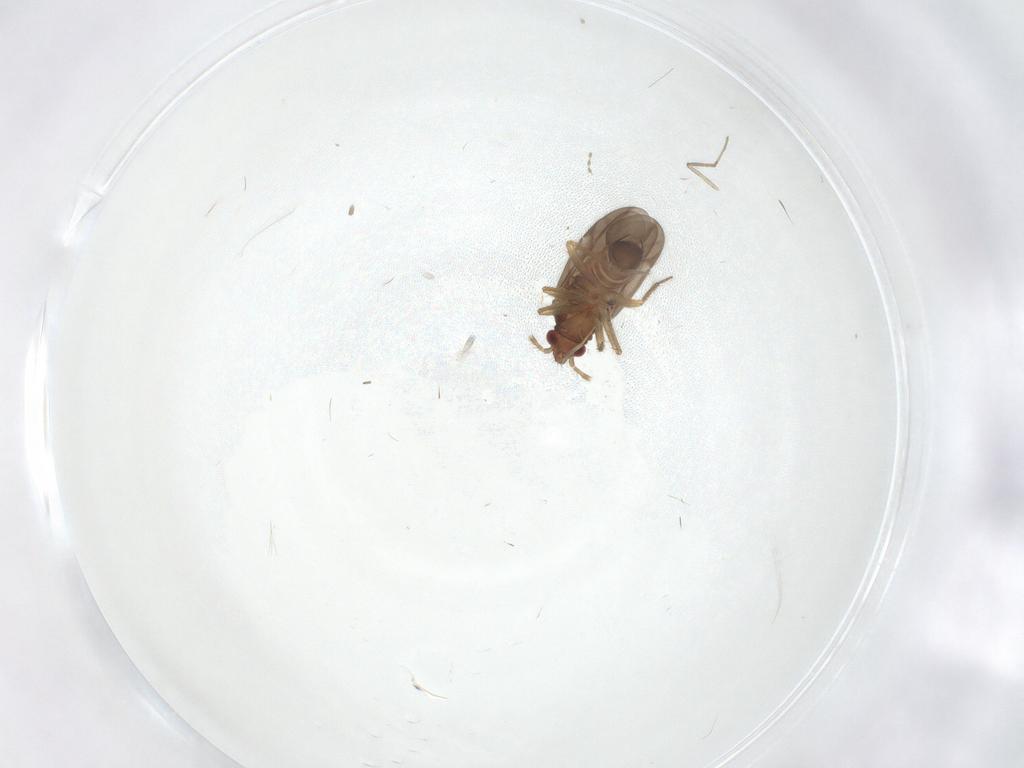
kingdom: Animalia
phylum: Arthropoda
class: Insecta
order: Hemiptera
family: Ceratocombidae
